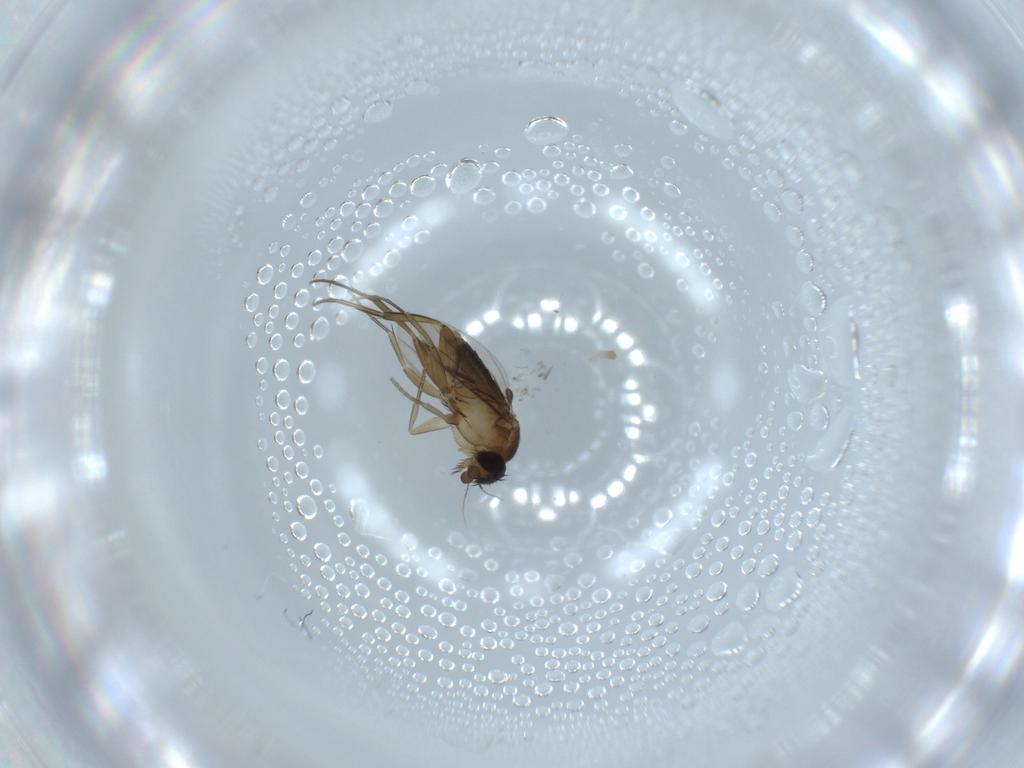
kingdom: Animalia
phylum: Arthropoda
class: Insecta
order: Diptera
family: Phoridae
